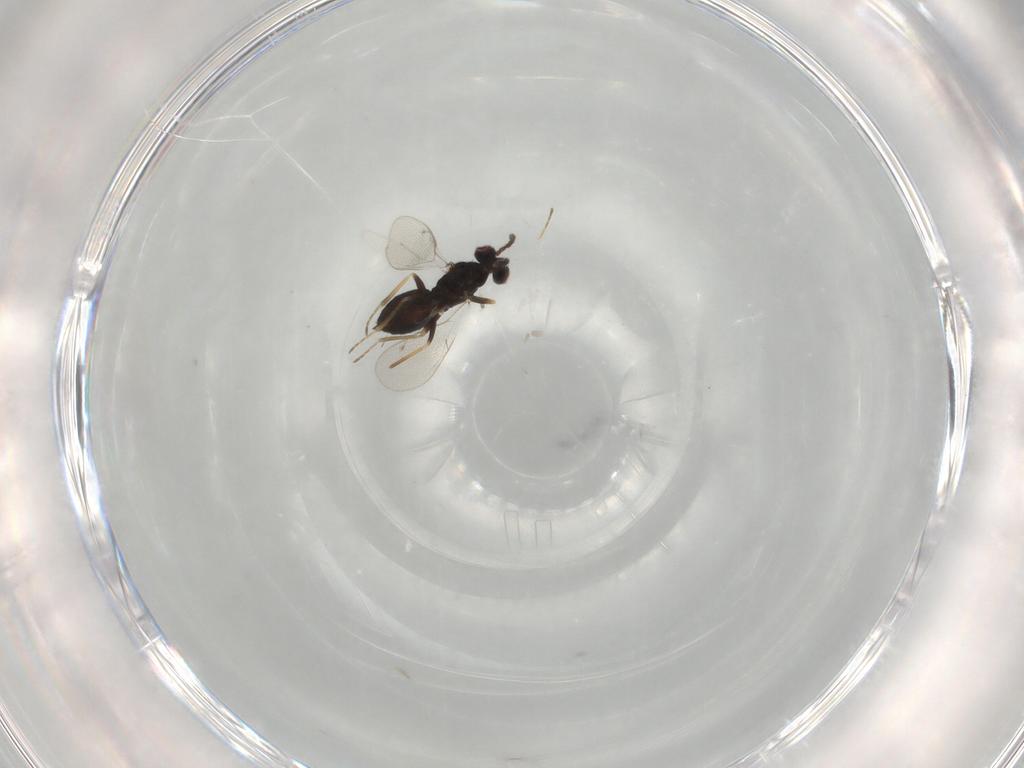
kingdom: Animalia
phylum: Arthropoda
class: Insecta
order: Hymenoptera
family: Eulophidae
